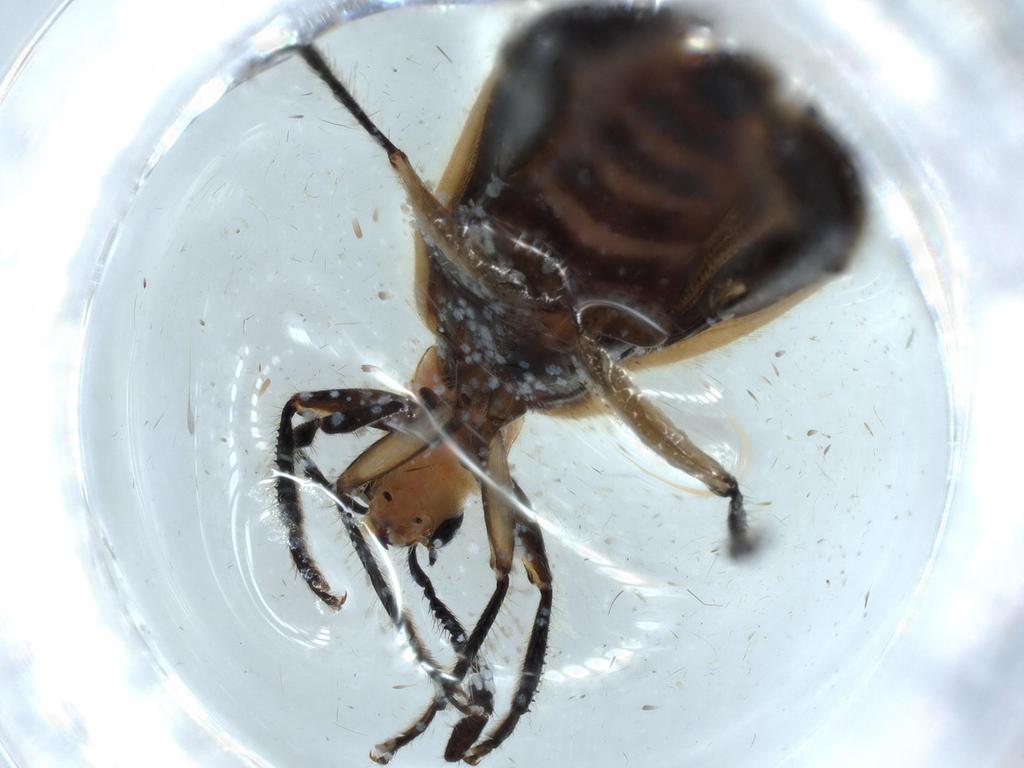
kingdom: Animalia
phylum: Arthropoda
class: Insecta
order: Coleoptera
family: Cleridae
